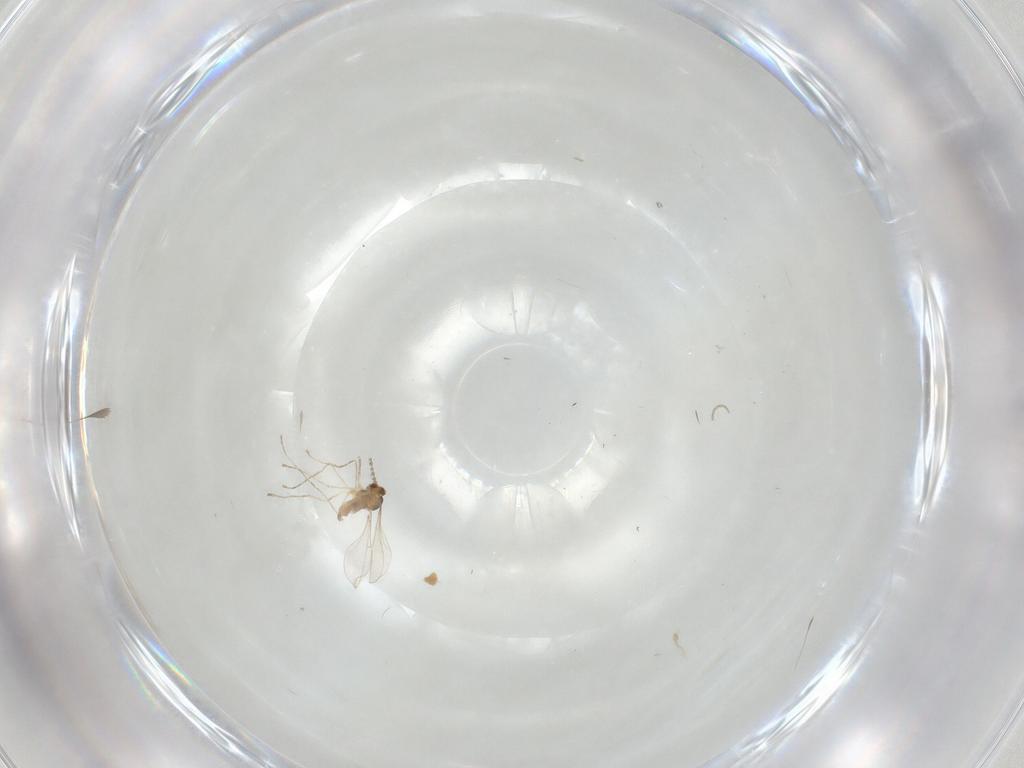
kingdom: Animalia
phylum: Arthropoda
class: Insecta
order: Diptera
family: Cecidomyiidae
